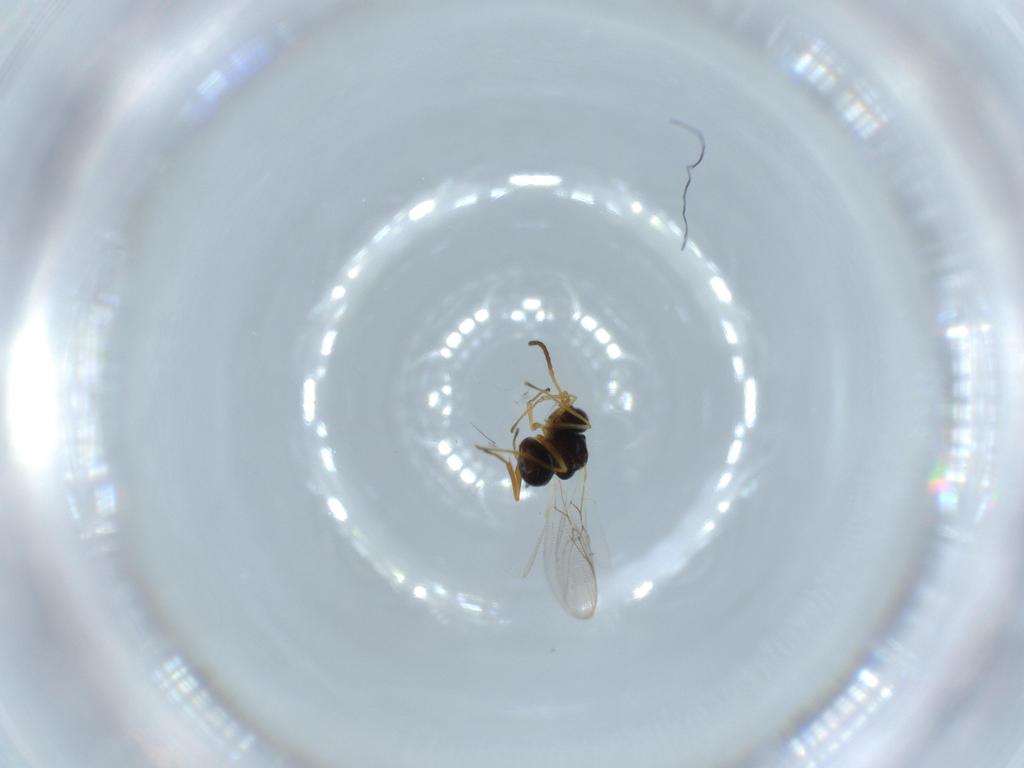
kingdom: Animalia
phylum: Arthropoda
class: Insecta
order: Hymenoptera
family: Figitidae
